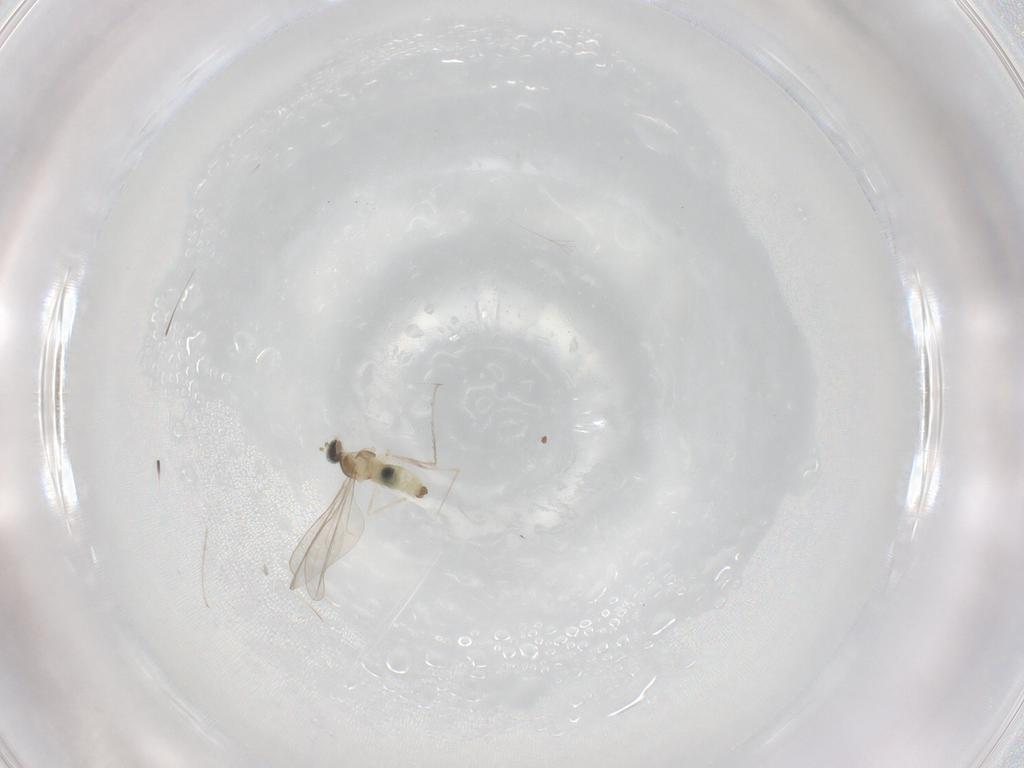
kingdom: Animalia
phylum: Arthropoda
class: Insecta
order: Diptera
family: Cecidomyiidae
